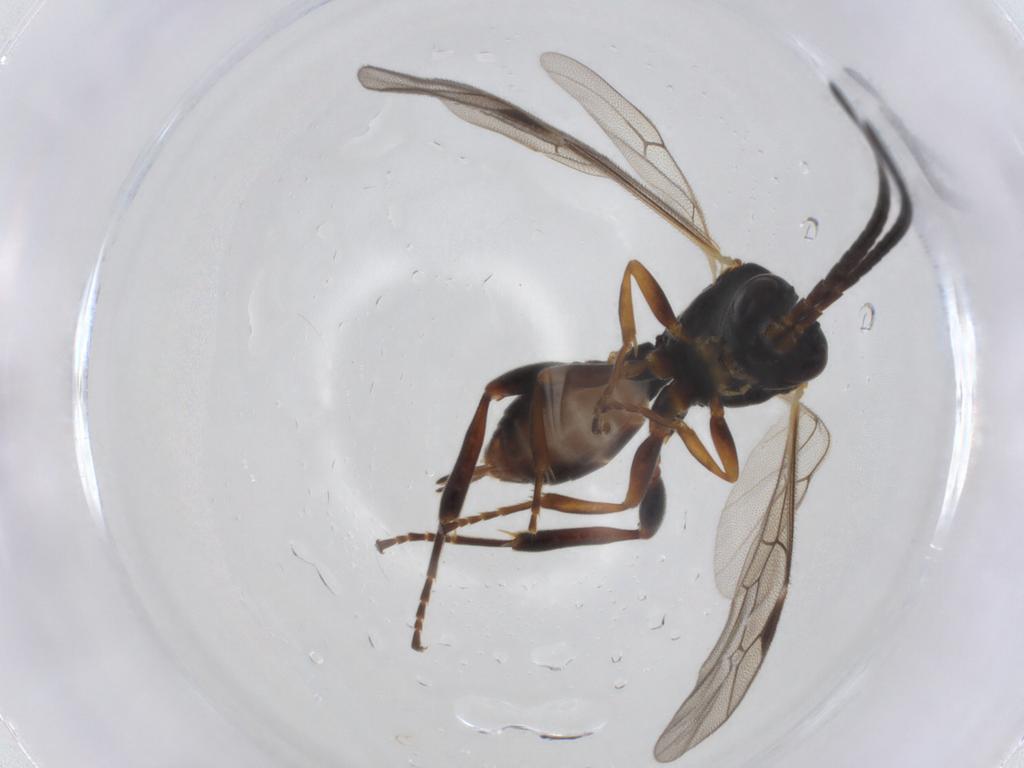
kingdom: Animalia
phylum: Arthropoda
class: Insecta
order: Hymenoptera
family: Ichneumonidae
